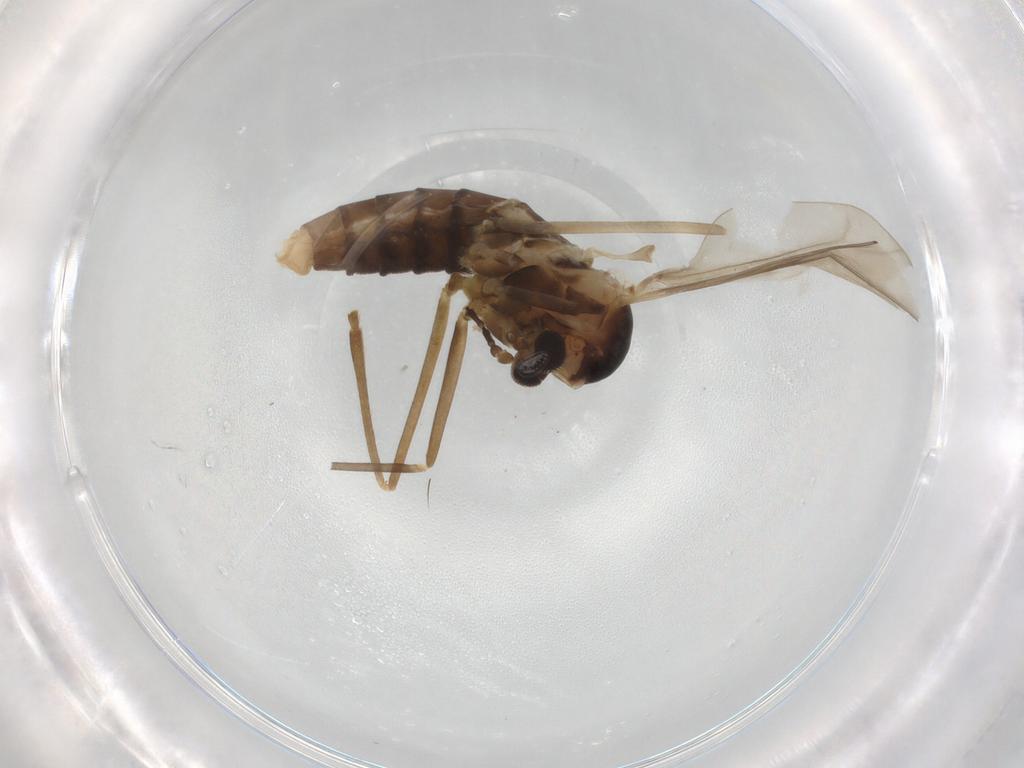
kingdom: Animalia
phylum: Arthropoda
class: Insecta
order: Diptera
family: Cecidomyiidae
